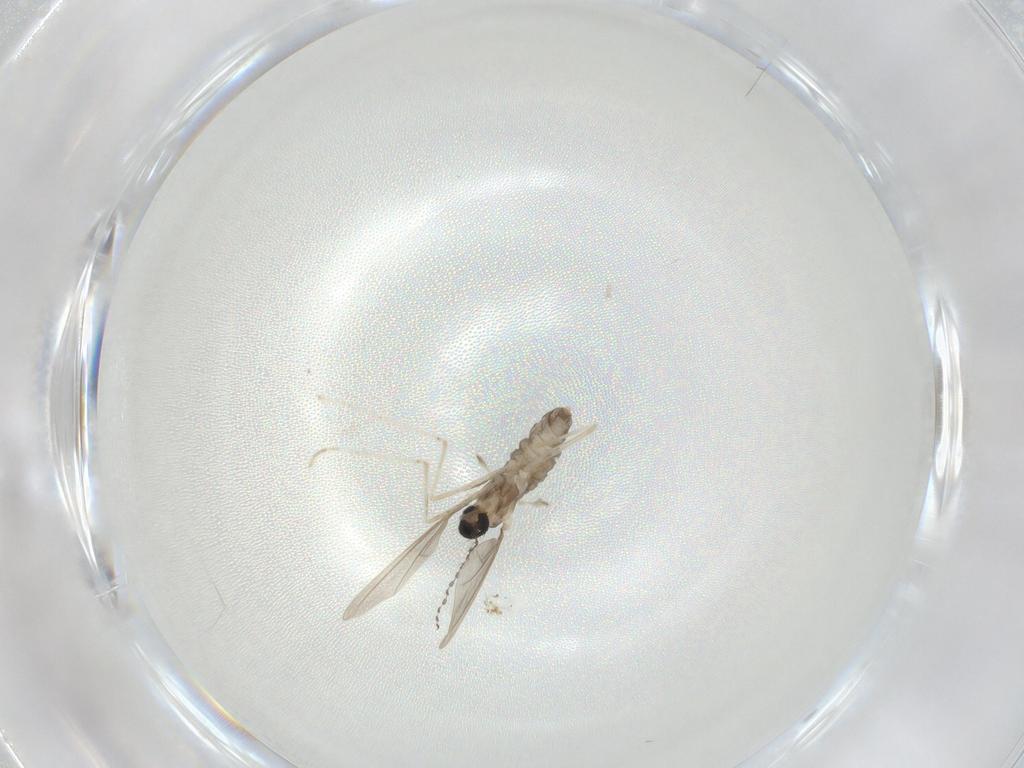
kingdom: Animalia
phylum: Arthropoda
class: Insecta
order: Diptera
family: Cecidomyiidae
